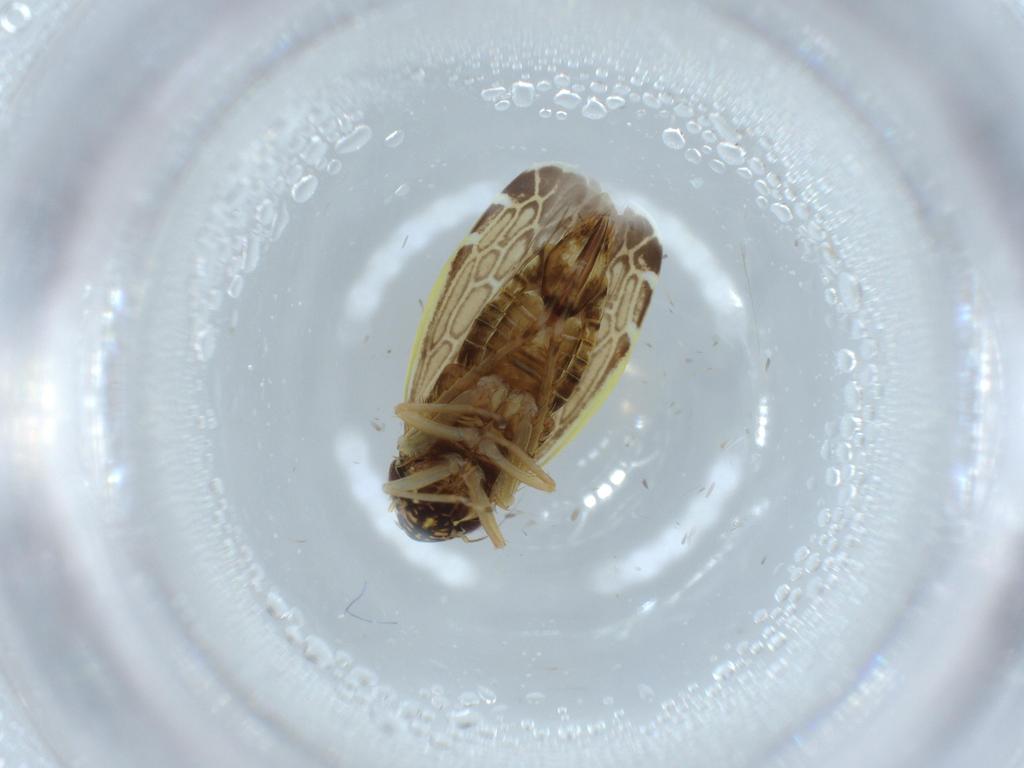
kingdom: Animalia
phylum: Arthropoda
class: Insecta
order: Hemiptera
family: Cicadellidae
